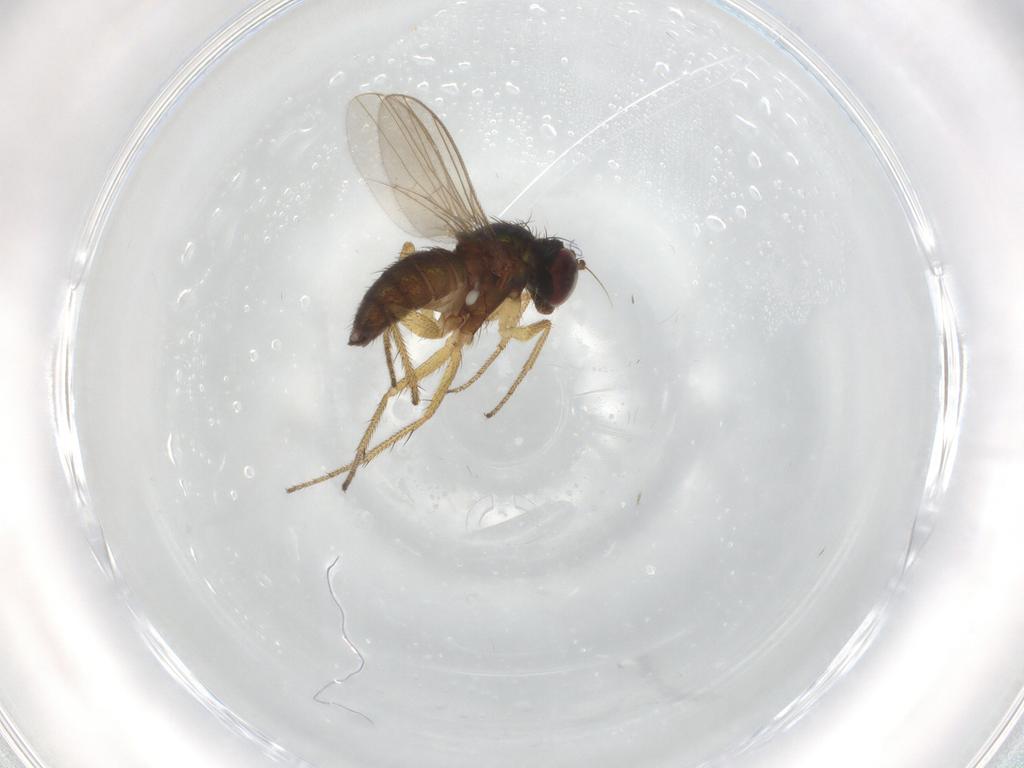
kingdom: Animalia
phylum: Arthropoda
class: Insecta
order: Diptera
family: Dolichopodidae
